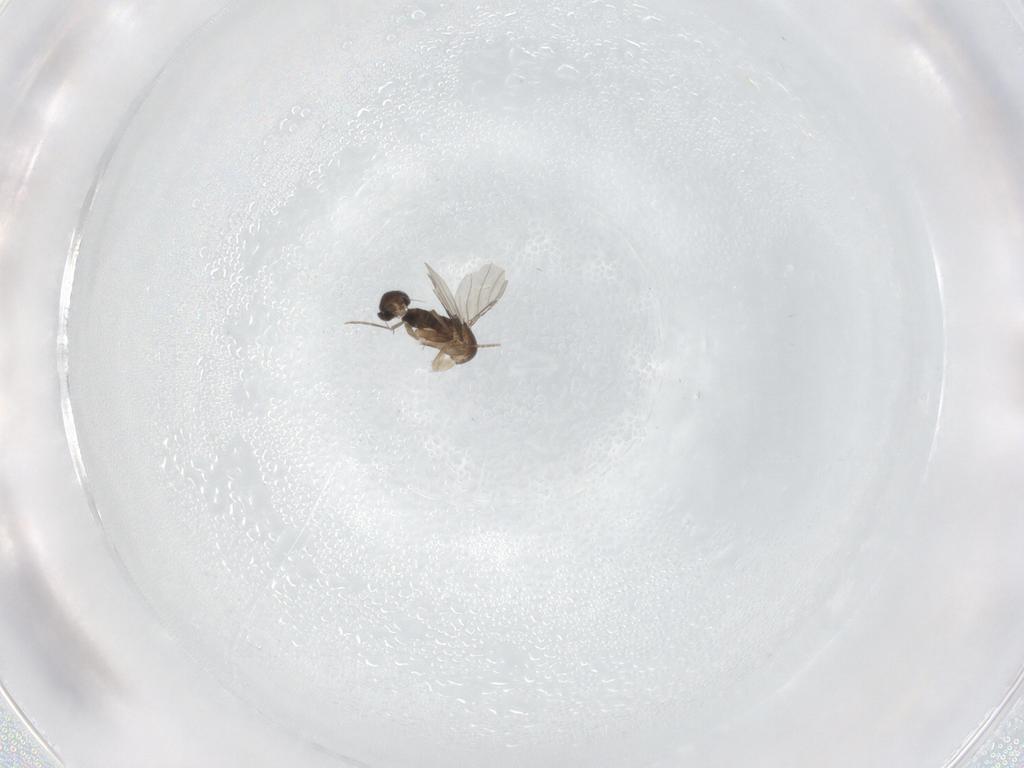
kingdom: Animalia
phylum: Arthropoda
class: Insecta
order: Diptera
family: Phoridae
